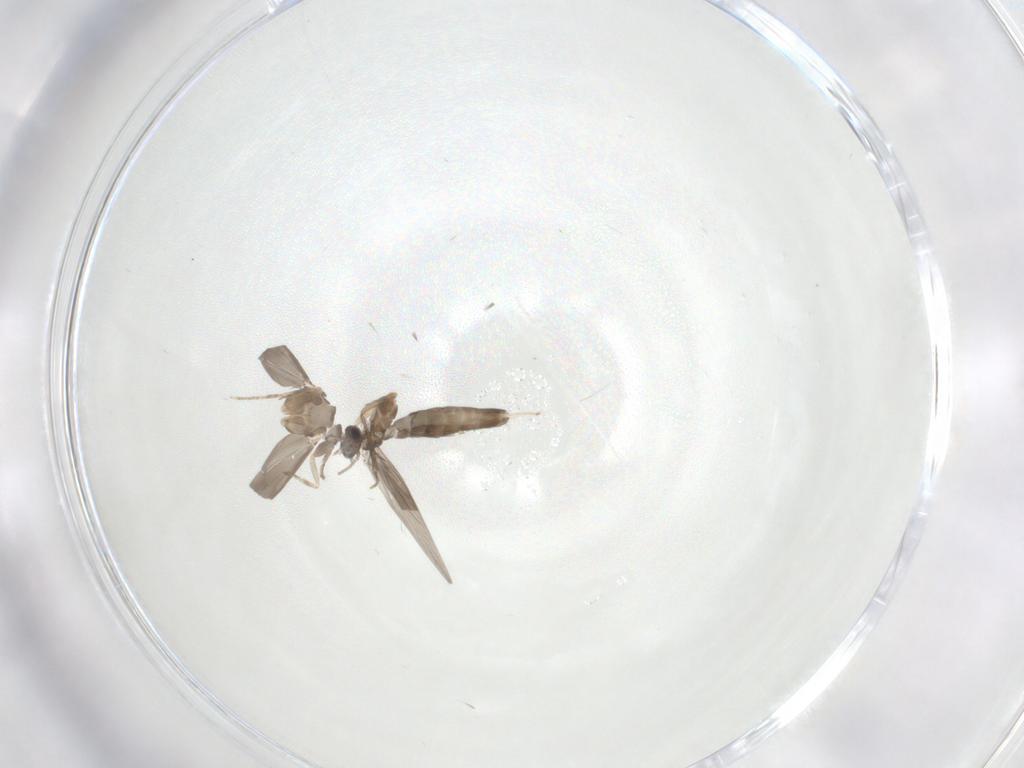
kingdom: Animalia
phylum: Arthropoda
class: Insecta
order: Trichoptera
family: Hydroptilidae
